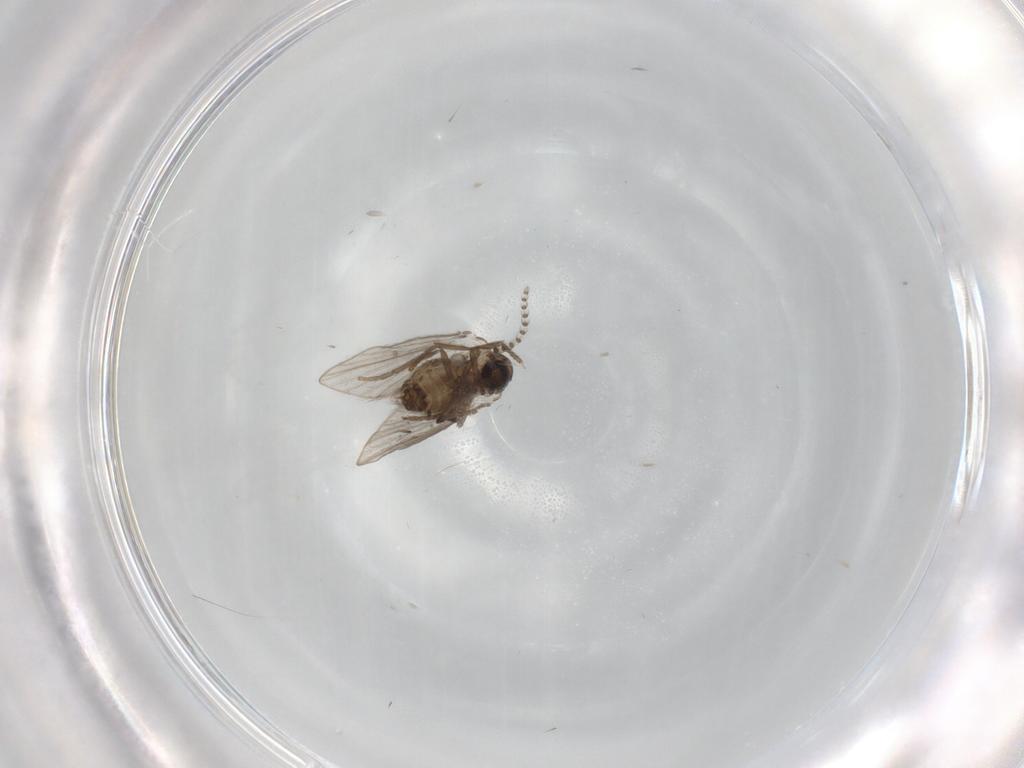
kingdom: Animalia
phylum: Arthropoda
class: Insecta
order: Diptera
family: Psychodidae
